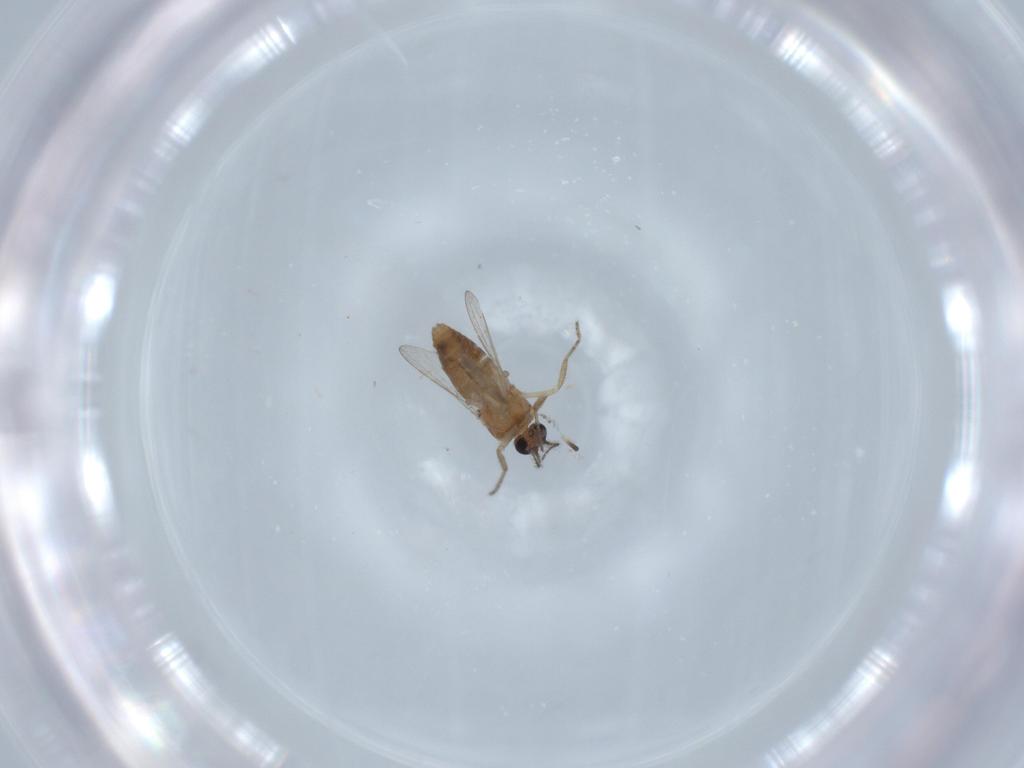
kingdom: Animalia
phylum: Arthropoda
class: Insecta
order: Diptera
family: Ceratopogonidae
